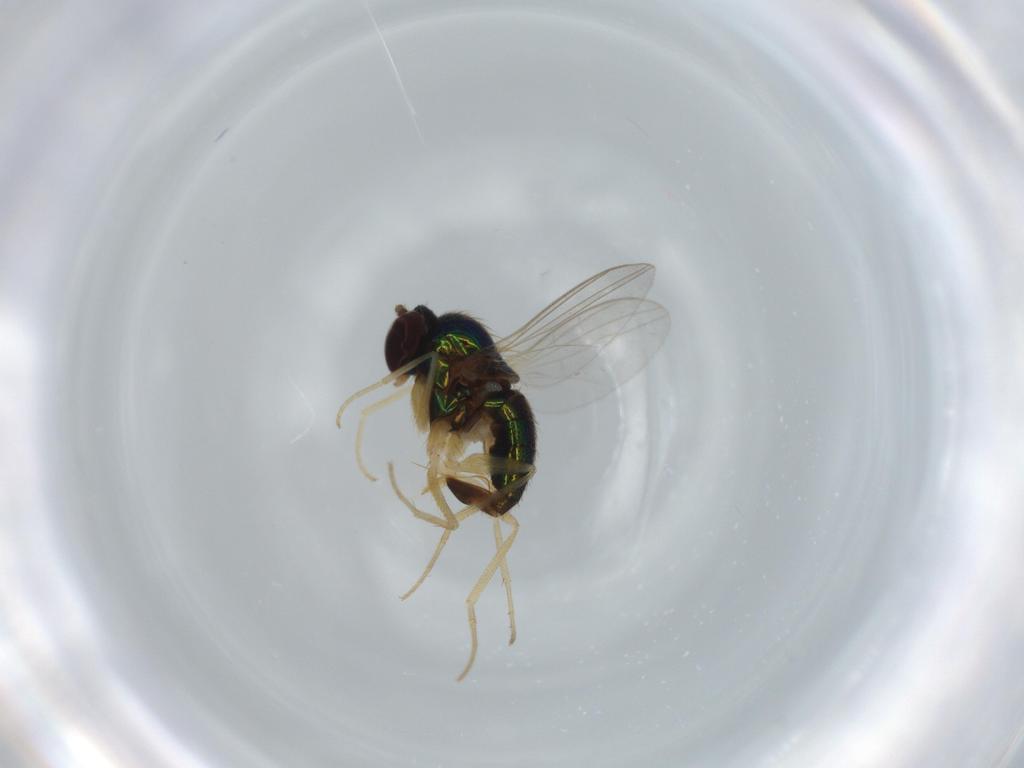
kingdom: Animalia
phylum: Arthropoda
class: Insecta
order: Diptera
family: Dolichopodidae
